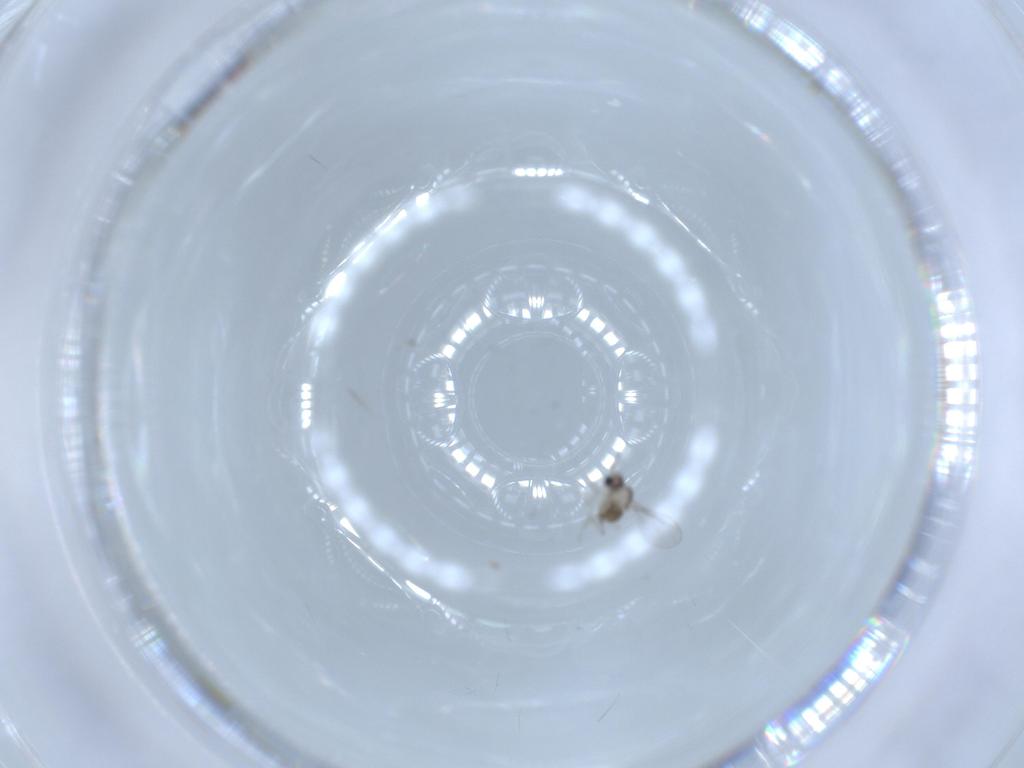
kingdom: Animalia
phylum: Arthropoda
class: Insecta
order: Diptera
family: Cecidomyiidae
